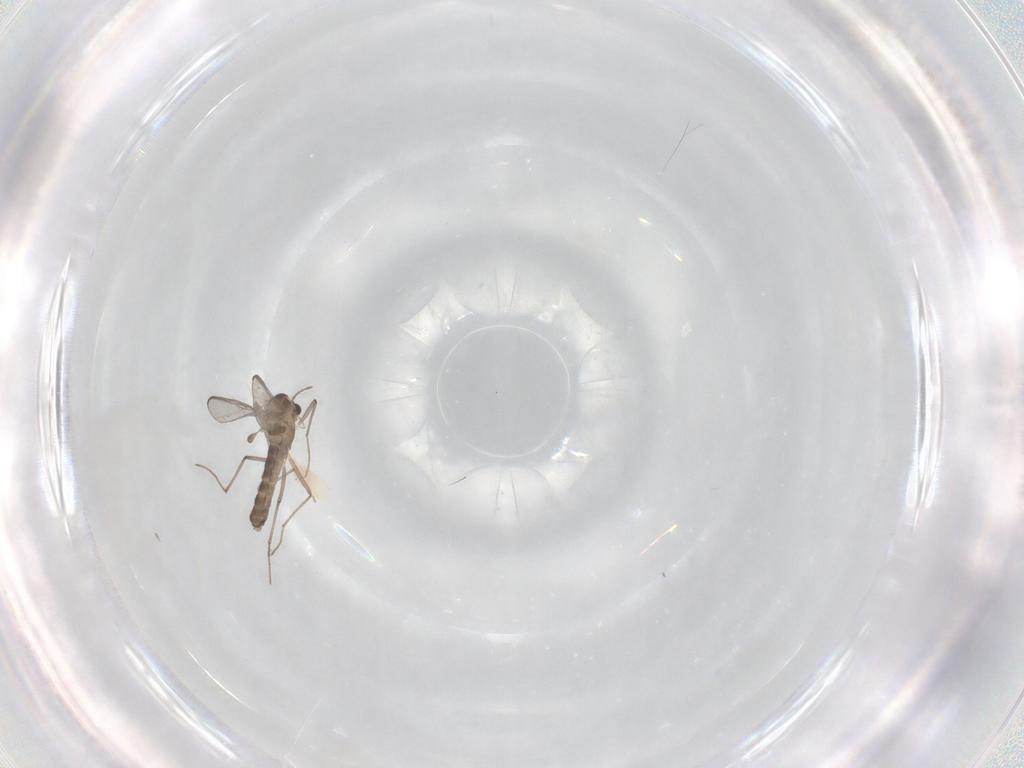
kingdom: Animalia
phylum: Arthropoda
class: Insecta
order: Diptera
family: Chironomidae
